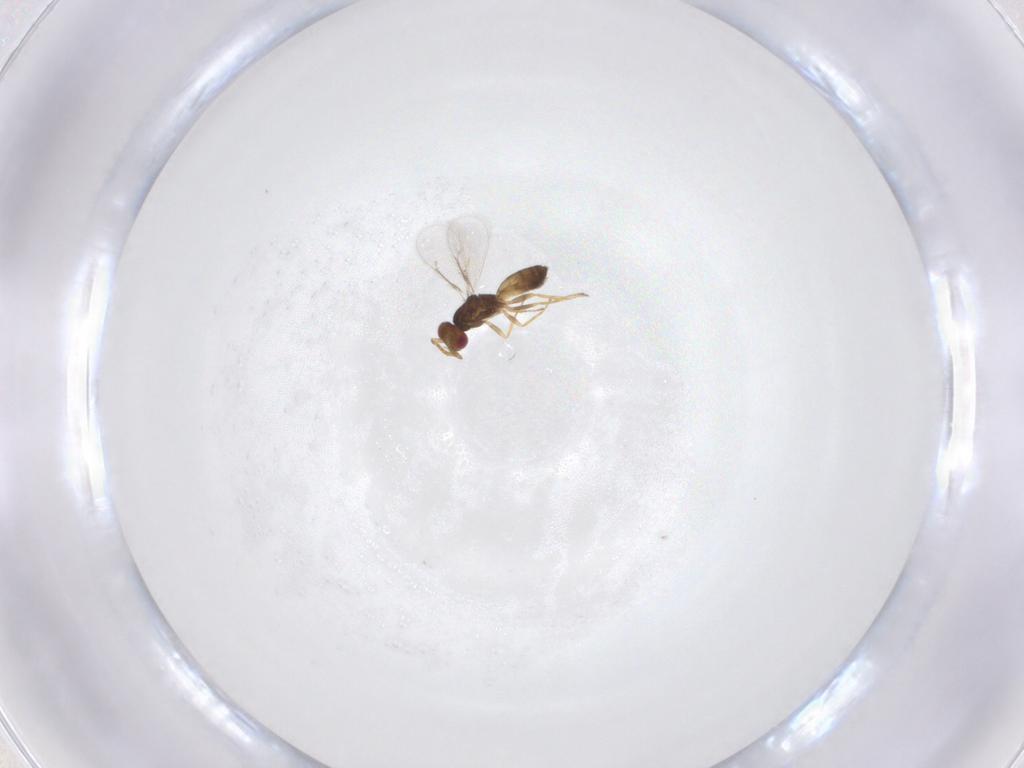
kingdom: Animalia
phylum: Arthropoda
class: Insecta
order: Hymenoptera
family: Eulophidae
